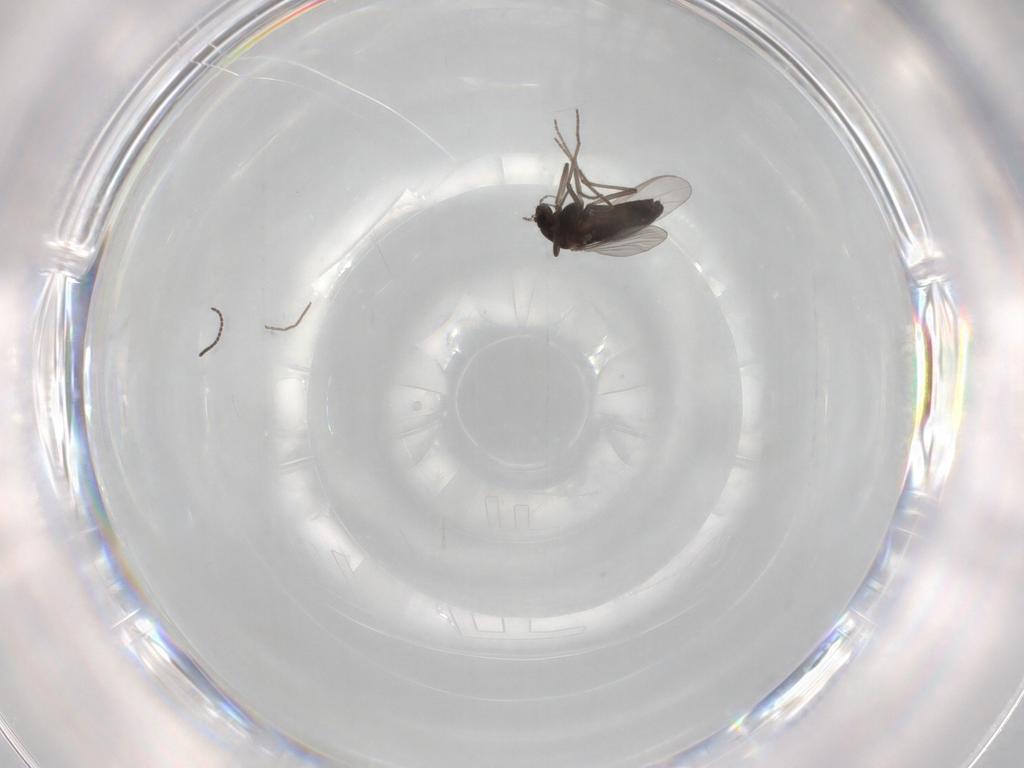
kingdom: Animalia
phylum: Arthropoda
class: Insecta
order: Diptera
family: Chironomidae
